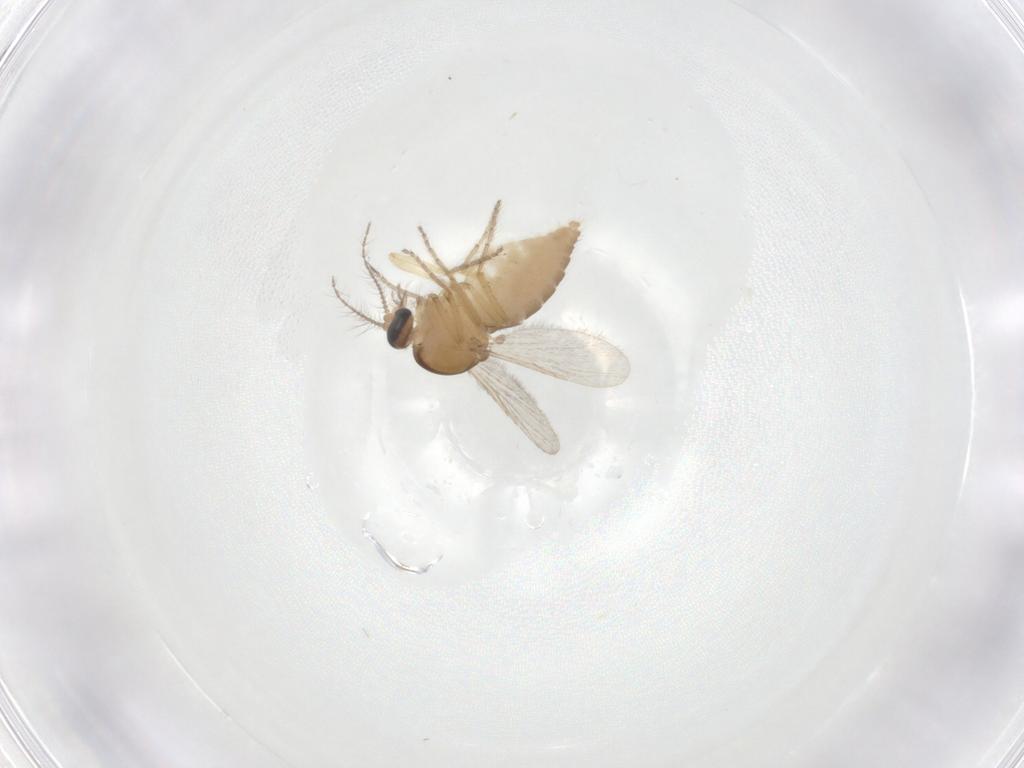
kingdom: Animalia
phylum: Arthropoda
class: Insecta
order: Diptera
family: Ceratopogonidae
